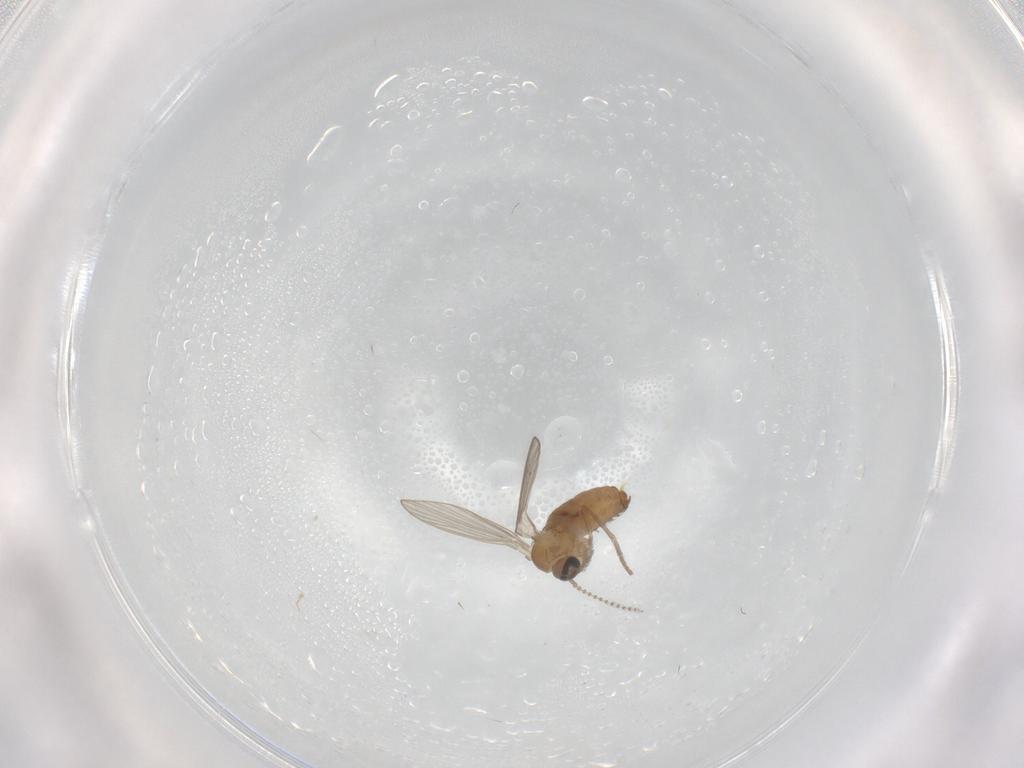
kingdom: Animalia
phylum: Arthropoda
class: Insecta
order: Diptera
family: Psychodidae
